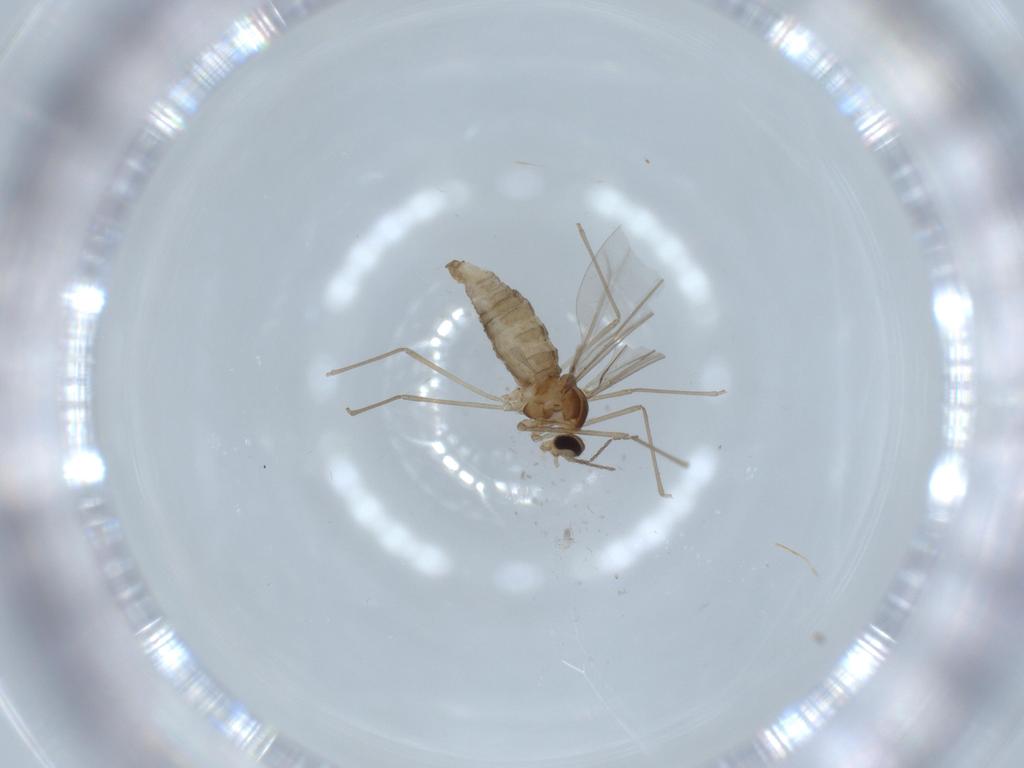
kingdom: Animalia
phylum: Arthropoda
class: Insecta
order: Diptera
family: Cecidomyiidae
